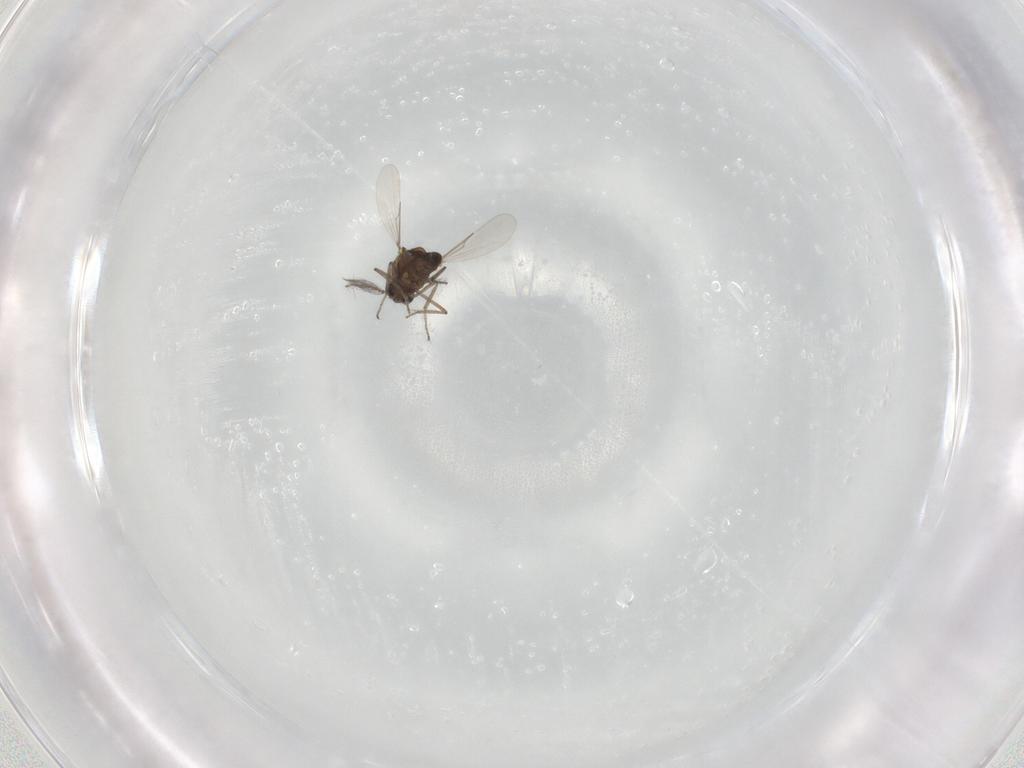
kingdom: Animalia
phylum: Arthropoda
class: Insecta
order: Diptera
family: Ceratopogonidae
